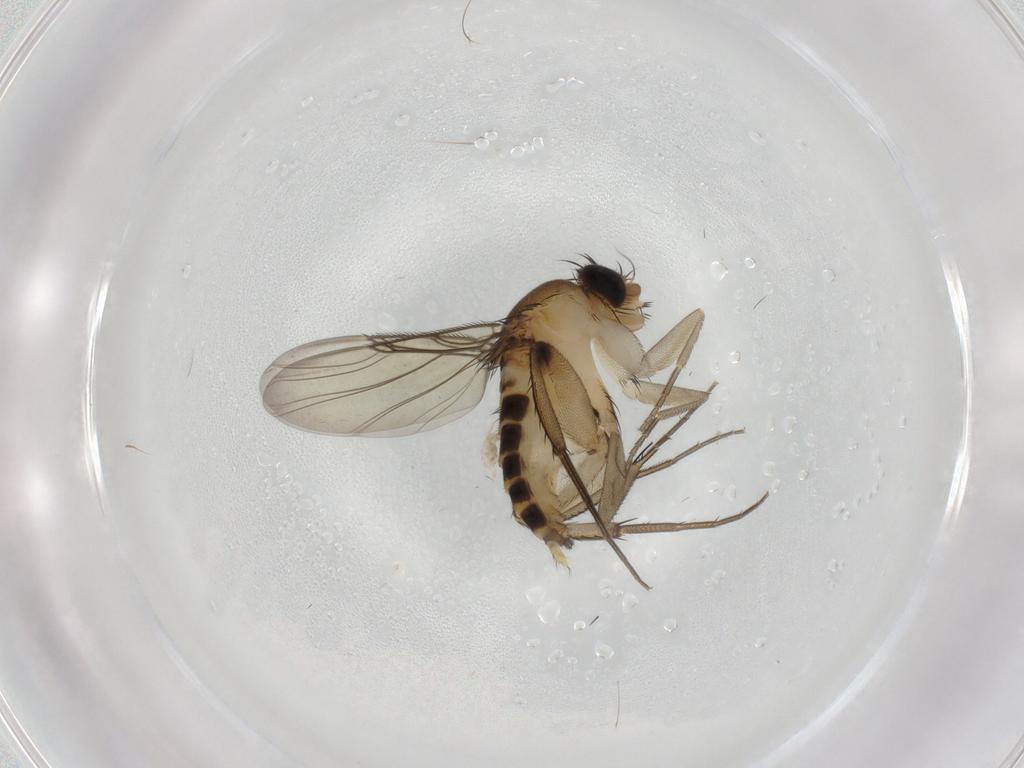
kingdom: Animalia
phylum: Arthropoda
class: Insecta
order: Diptera
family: Phoridae
